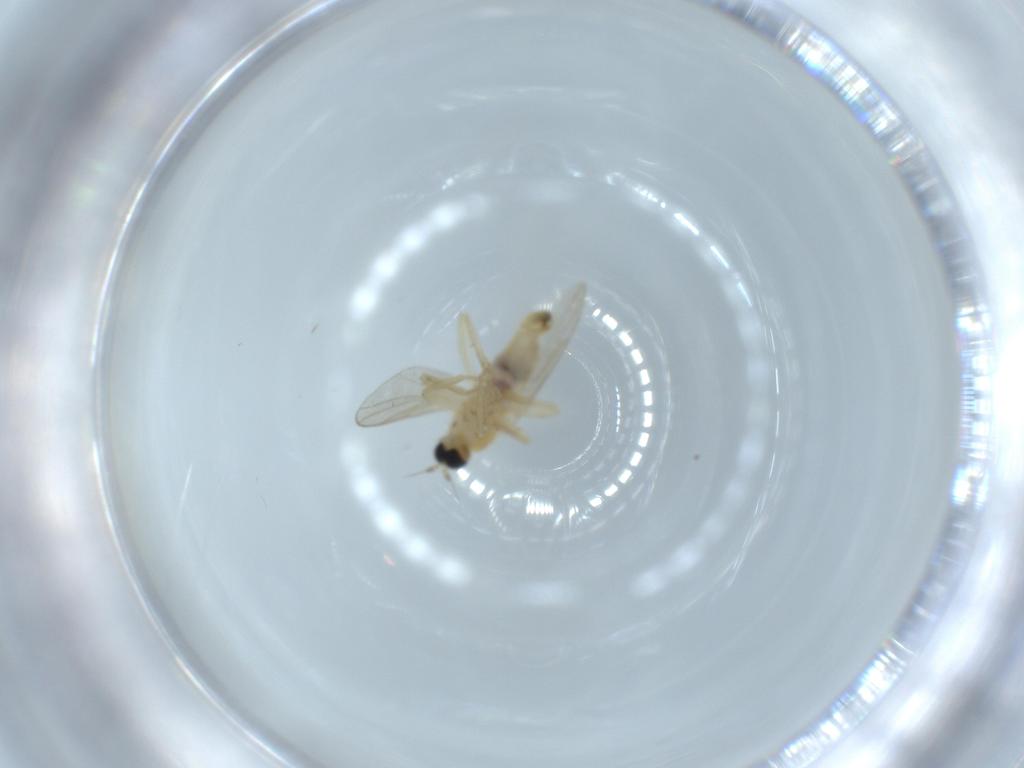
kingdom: Animalia
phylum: Arthropoda
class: Insecta
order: Diptera
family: Hybotidae
